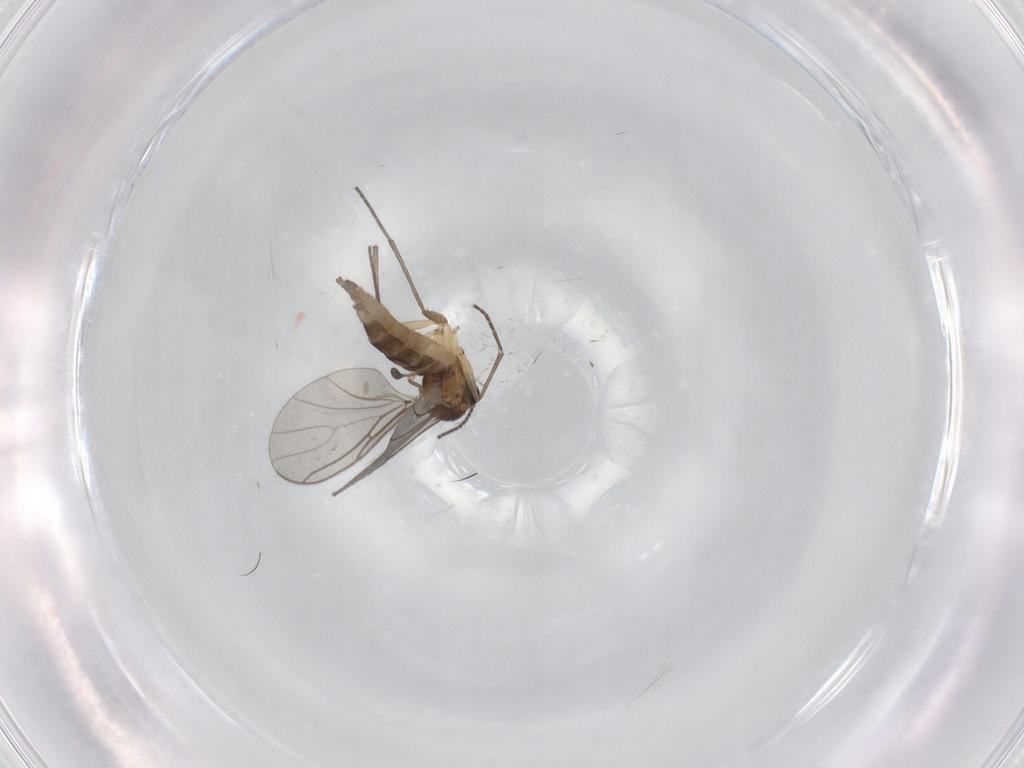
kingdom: Animalia
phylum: Arthropoda
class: Insecta
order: Diptera
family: Sciaridae
